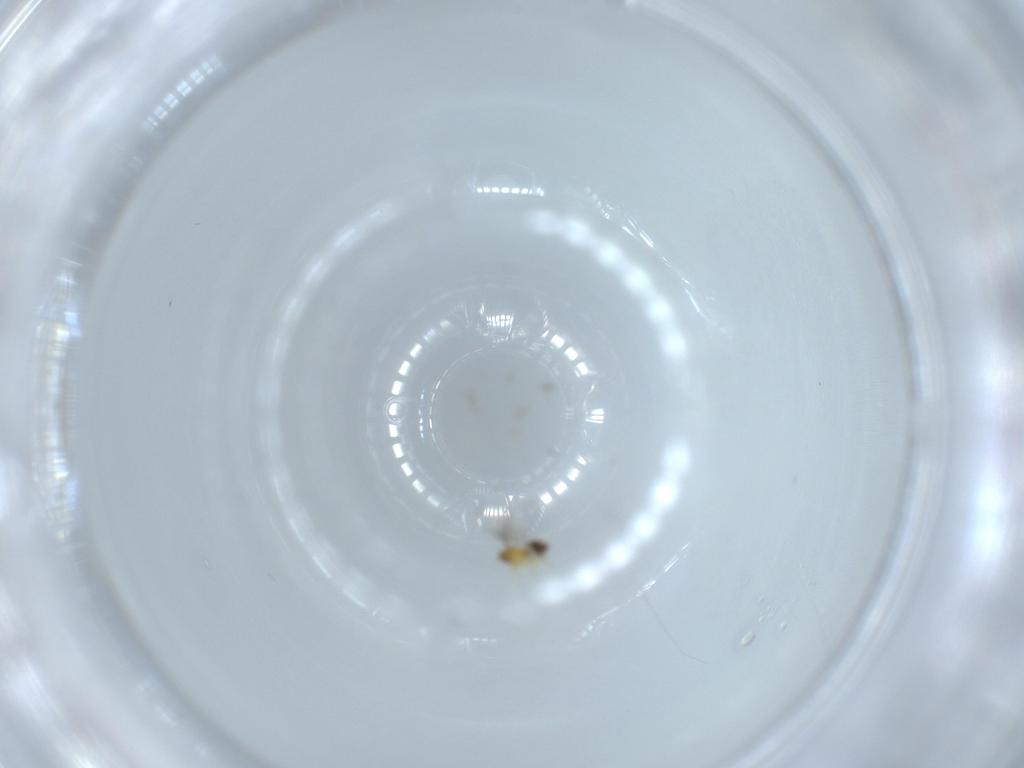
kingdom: Animalia
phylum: Arthropoda
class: Insecta
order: Hymenoptera
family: Trichogrammatidae
